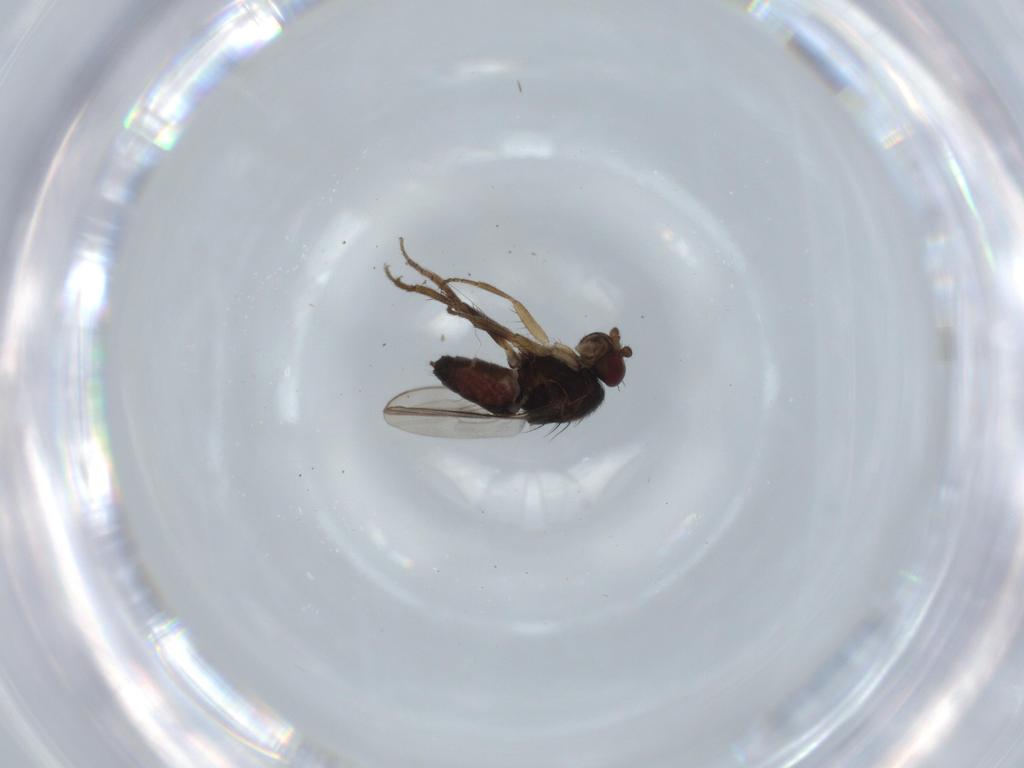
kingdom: Animalia
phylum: Arthropoda
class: Insecta
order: Diptera
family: Sphaeroceridae
